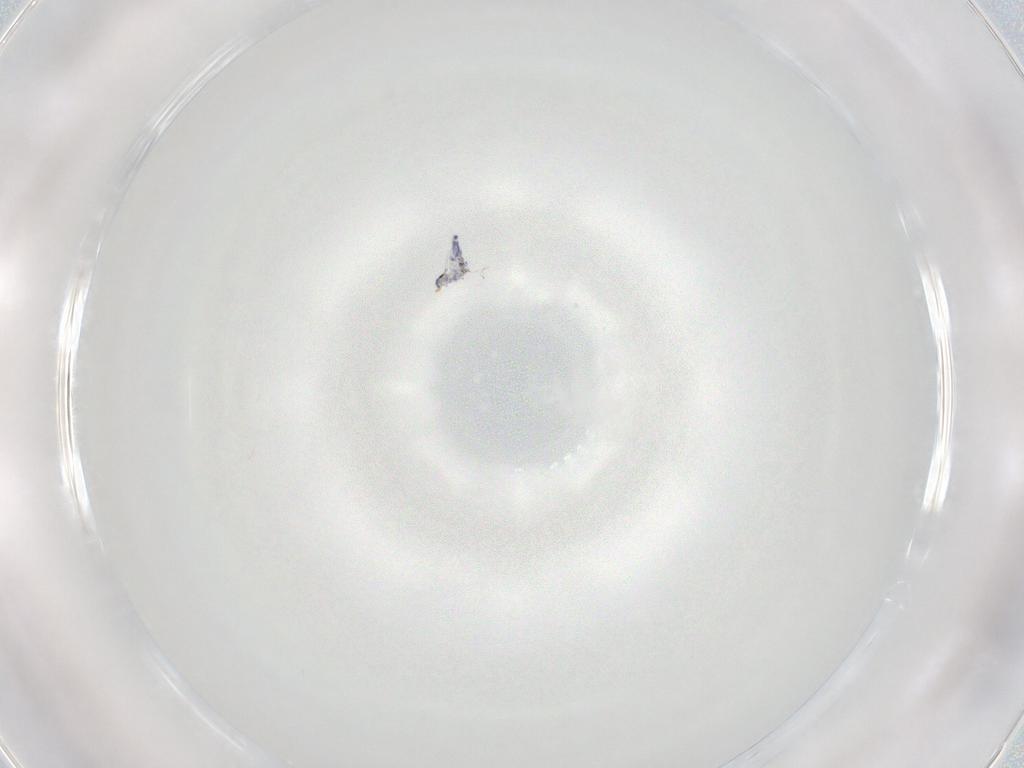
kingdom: Animalia
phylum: Arthropoda
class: Collembola
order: Entomobryomorpha
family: Entomobryidae
